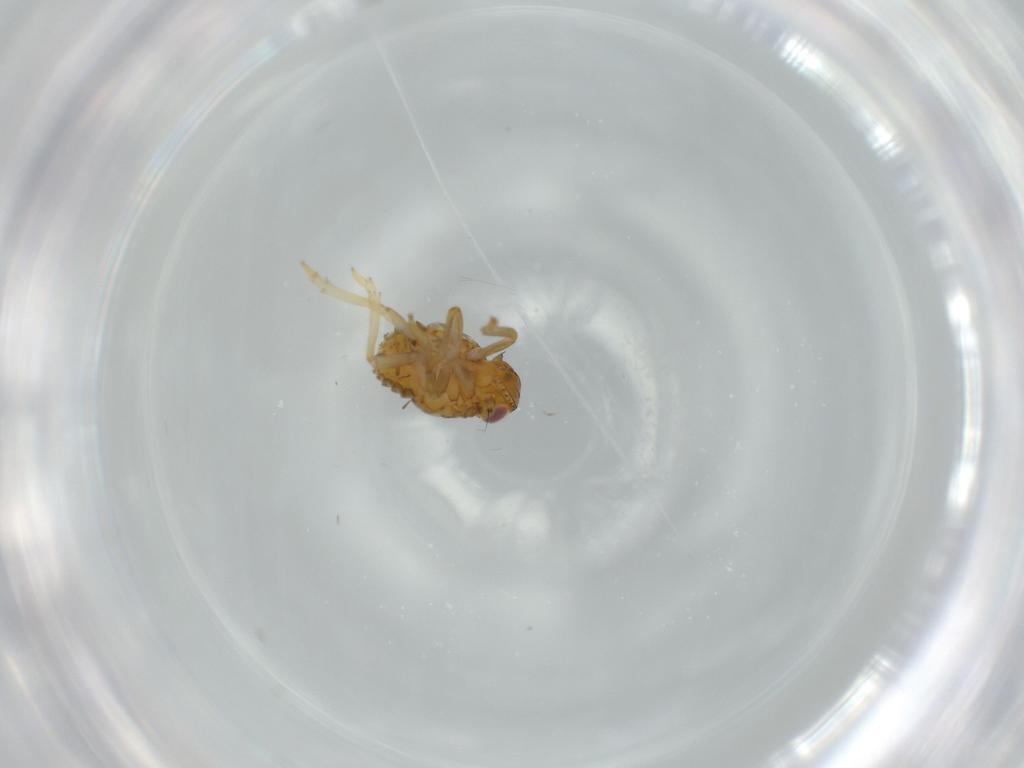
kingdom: Animalia
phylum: Arthropoda
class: Insecta
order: Hemiptera
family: Issidae
